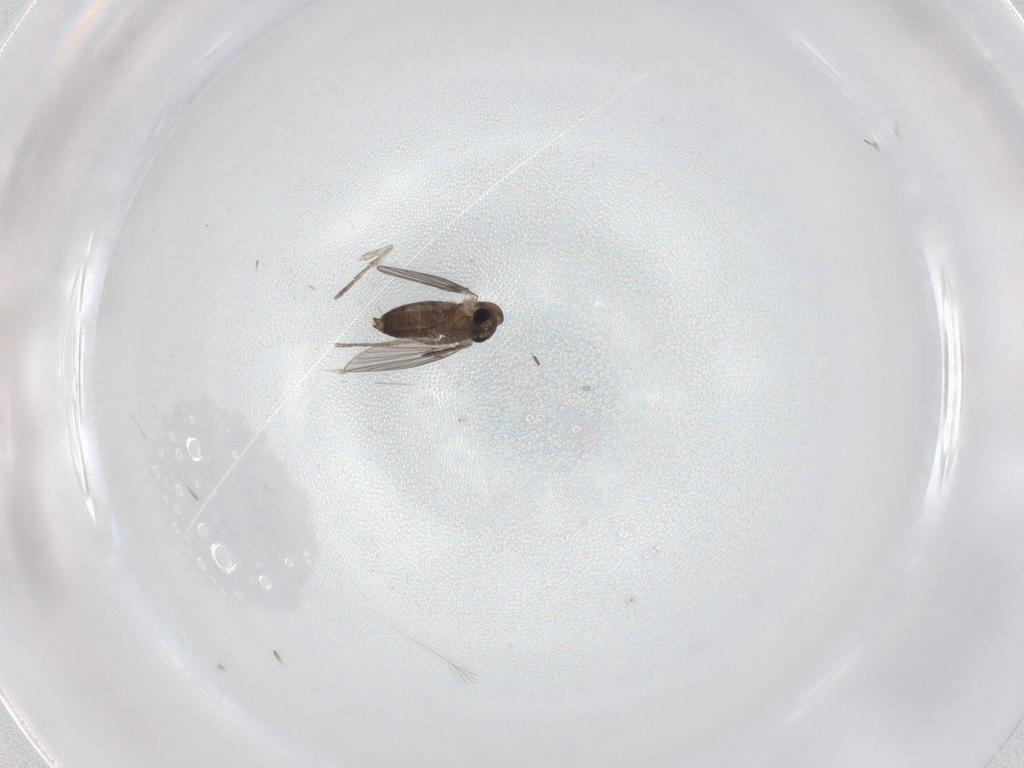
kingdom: Animalia
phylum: Arthropoda
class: Insecta
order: Diptera
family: Limoniidae
